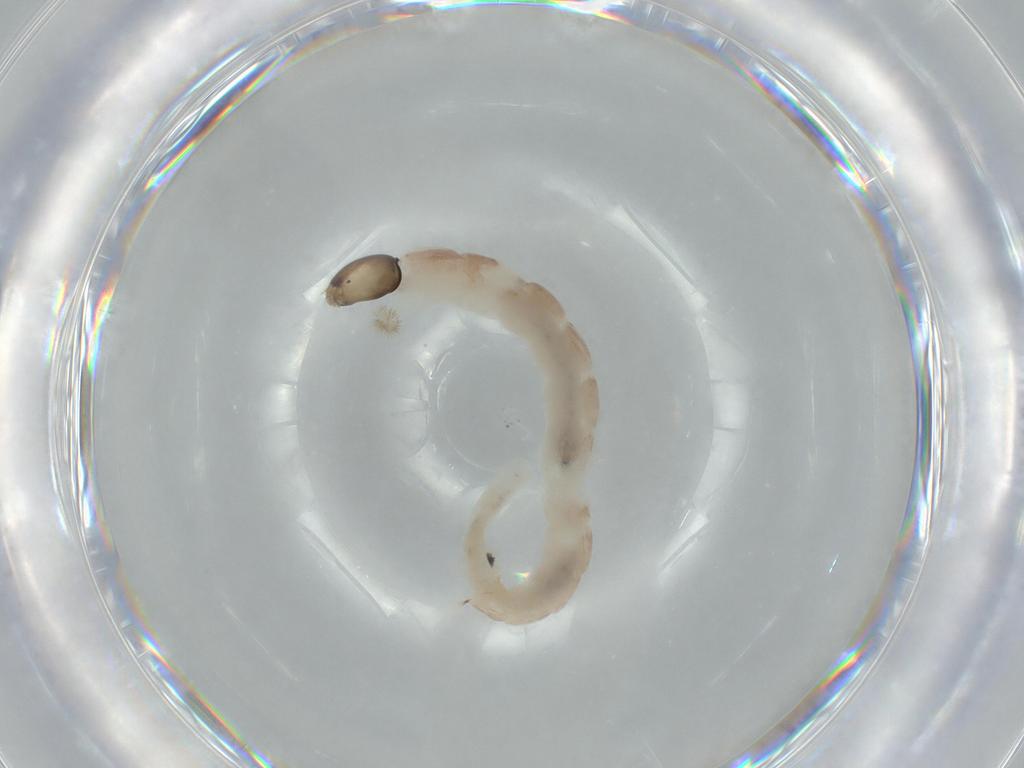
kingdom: Animalia
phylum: Arthropoda
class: Insecta
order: Diptera
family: Chironomidae
